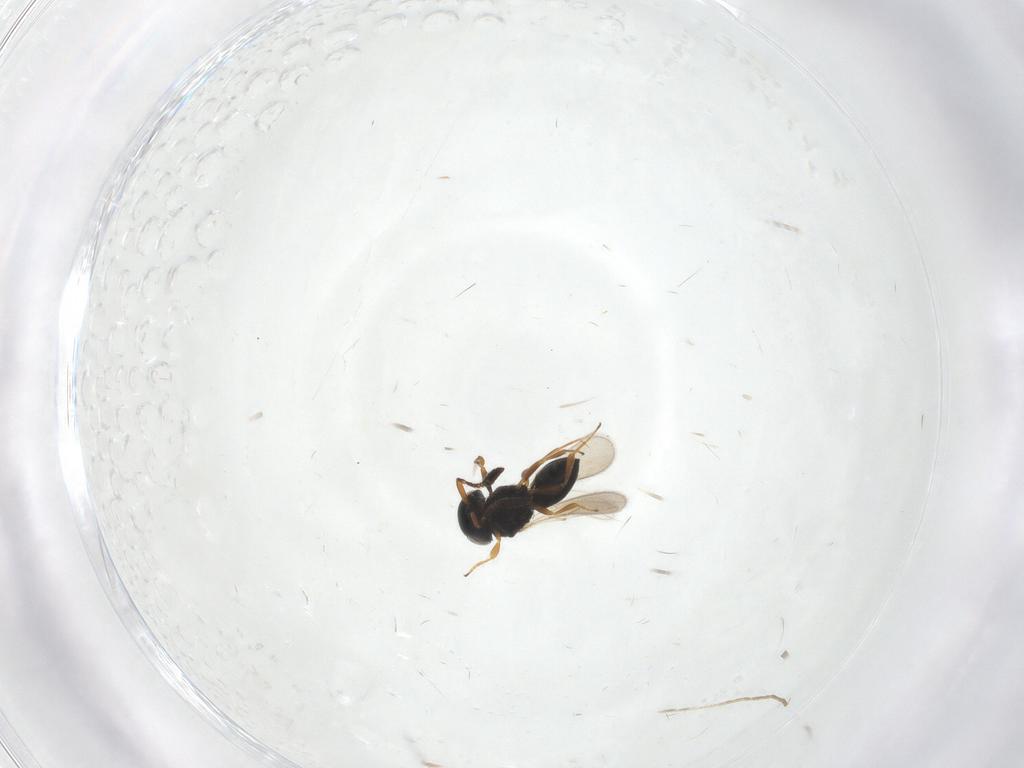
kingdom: Animalia
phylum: Arthropoda
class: Insecta
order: Hymenoptera
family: Scelionidae
